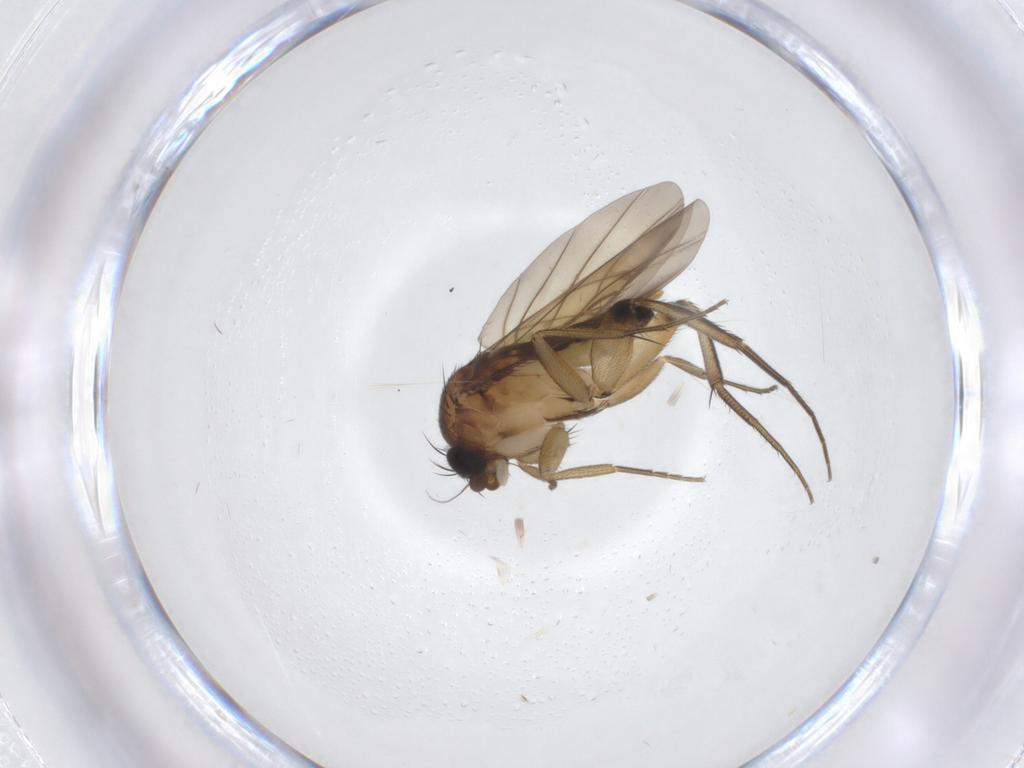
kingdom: Animalia
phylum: Arthropoda
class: Insecta
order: Diptera
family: Phoridae
